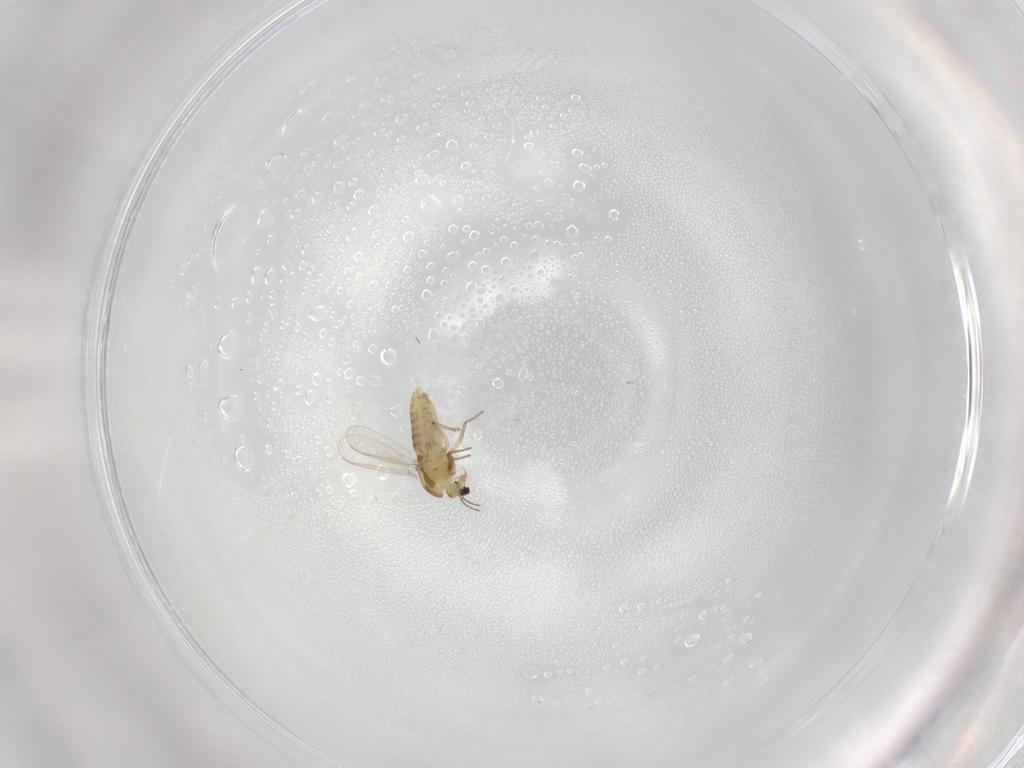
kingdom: Animalia
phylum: Arthropoda
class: Insecta
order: Diptera
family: Chironomidae
